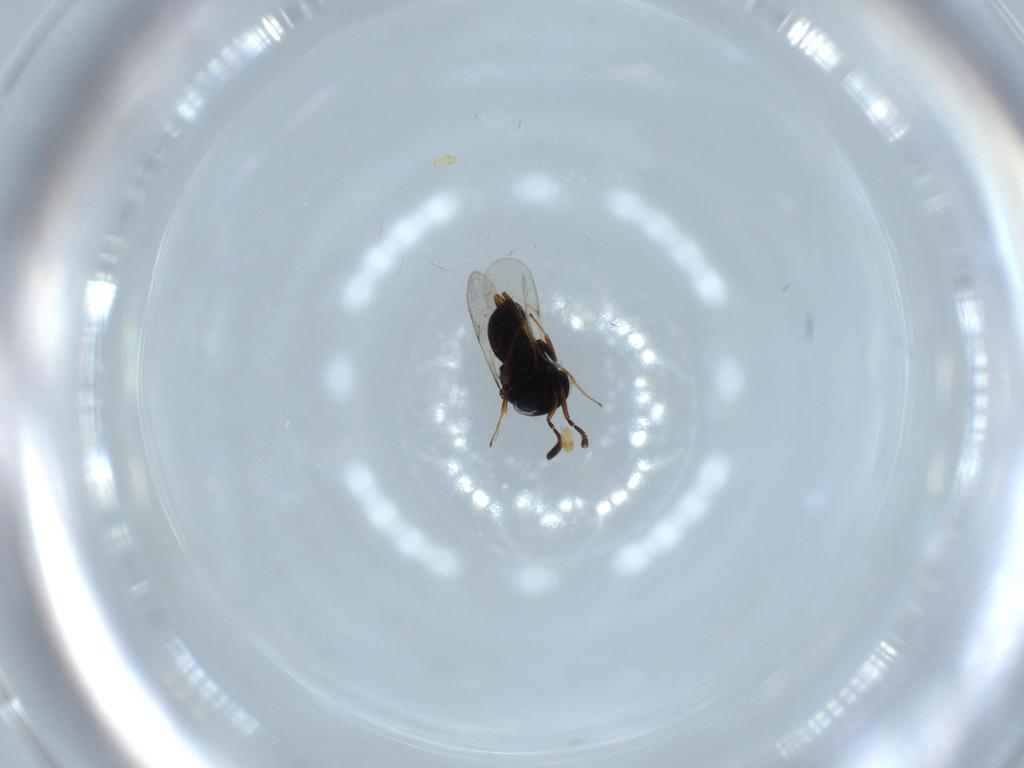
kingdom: Animalia
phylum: Arthropoda
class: Insecta
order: Hymenoptera
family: Scelionidae
